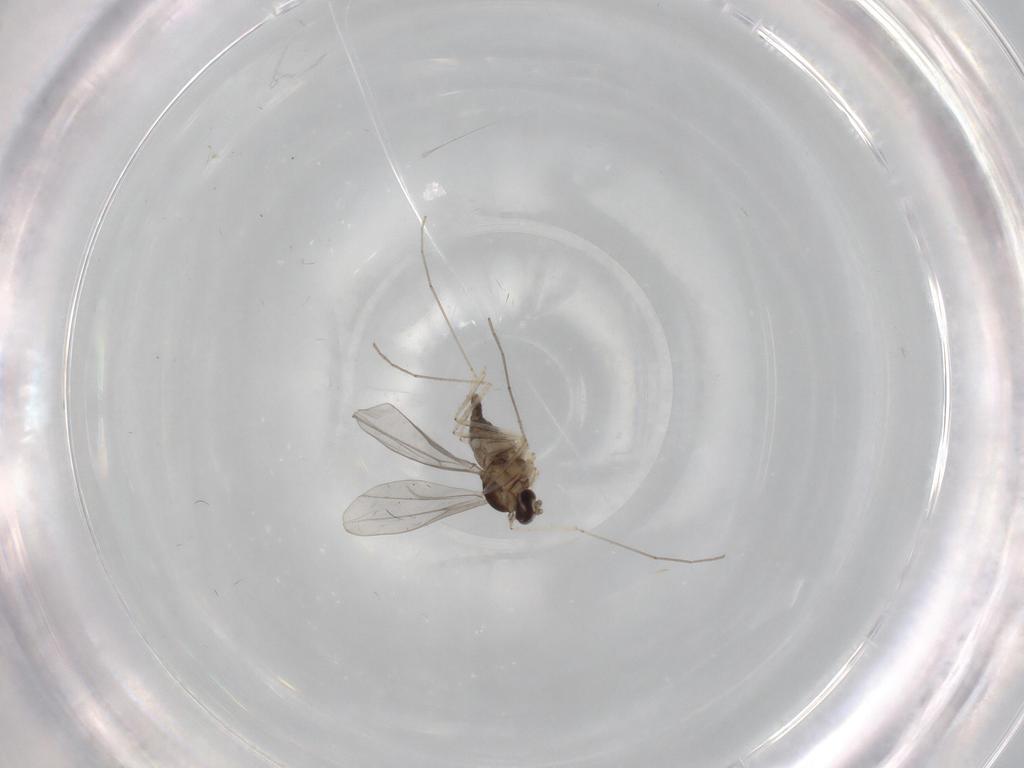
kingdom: Animalia
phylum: Arthropoda
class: Insecta
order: Diptera
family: Cecidomyiidae
